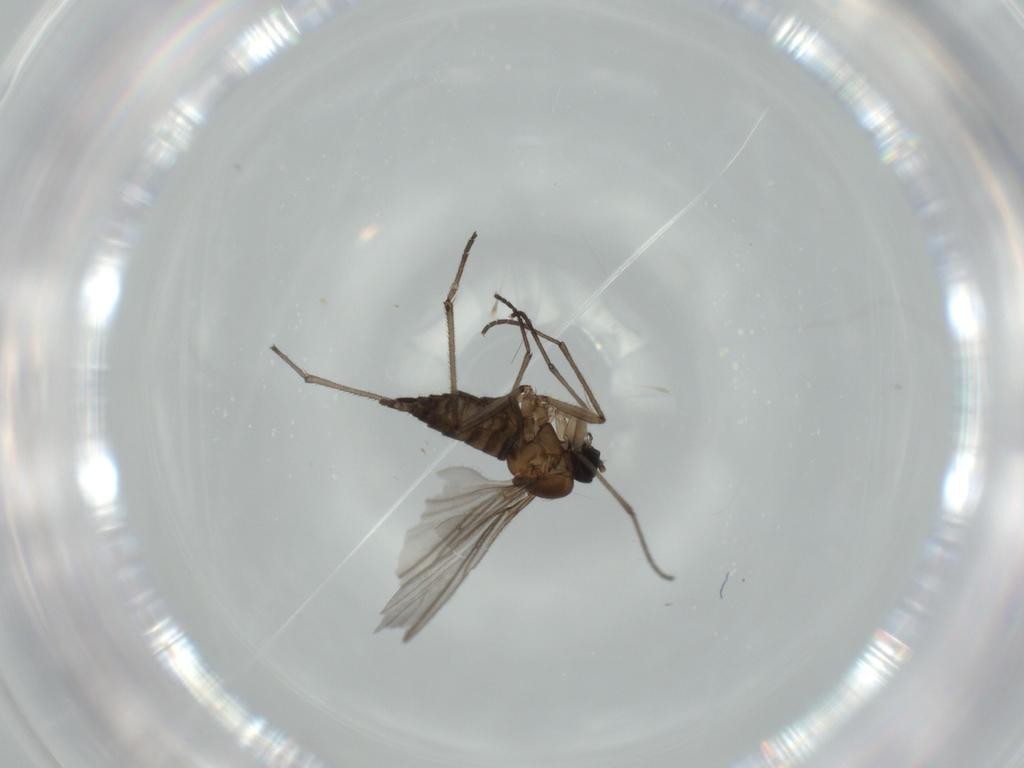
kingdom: Animalia
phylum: Arthropoda
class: Insecta
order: Diptera
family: Sciaridae
